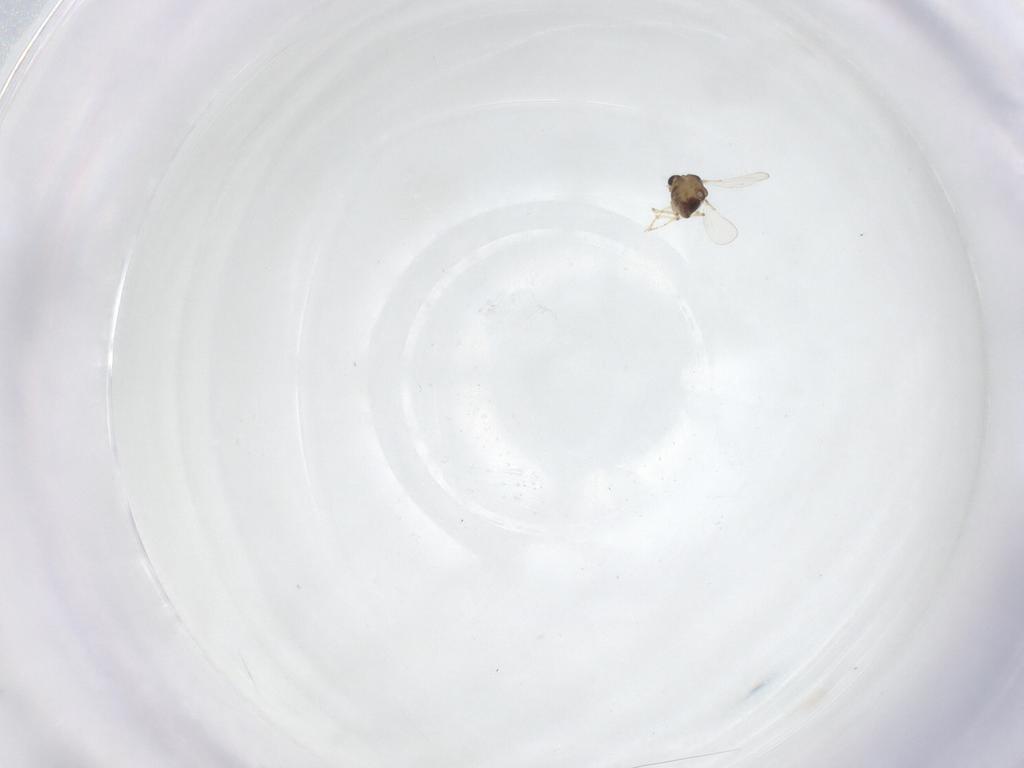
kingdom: Animalia
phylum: Arthropoda
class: Insecta
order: Diptera
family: Chironomidae
